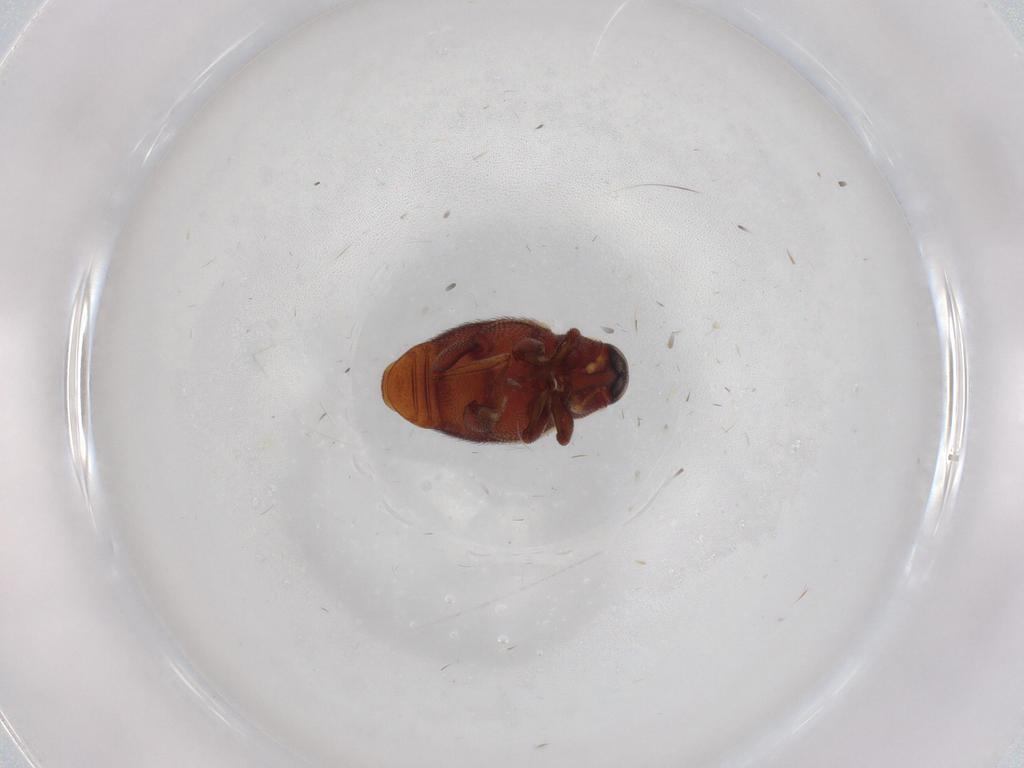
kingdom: Animalia
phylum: Arthropoda
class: Insecta
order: Coleoptera
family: Curculionidae
